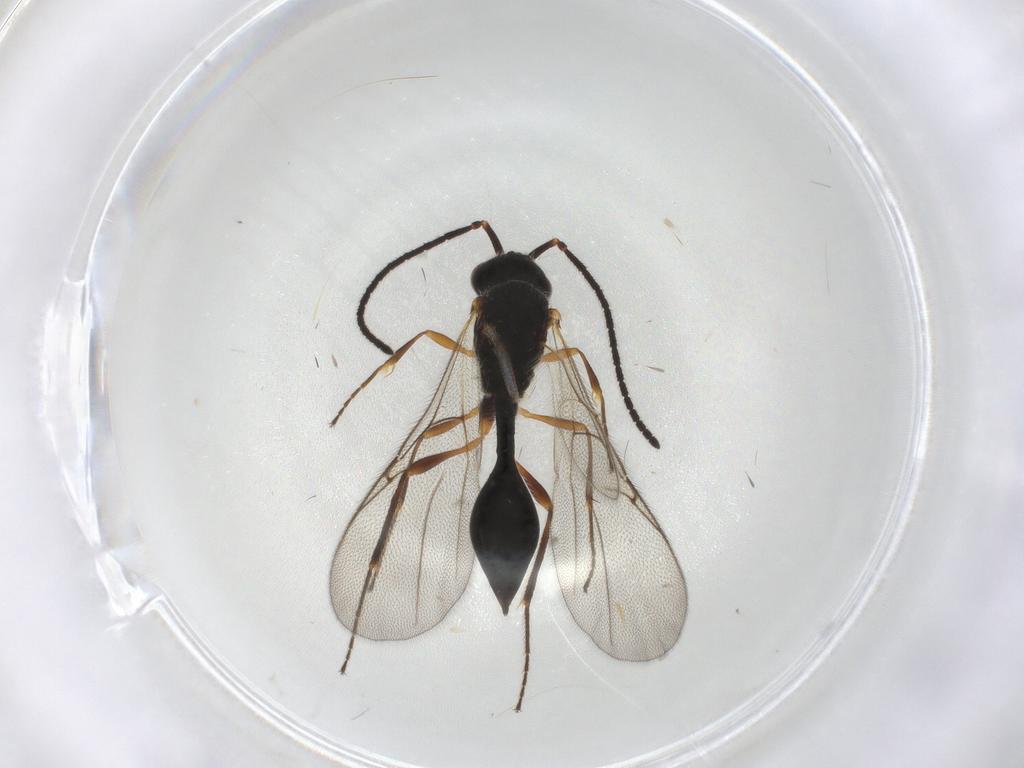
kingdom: Animalia
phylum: Arthropoda
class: Insecta
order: Hymenoptera
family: Diapriidae
